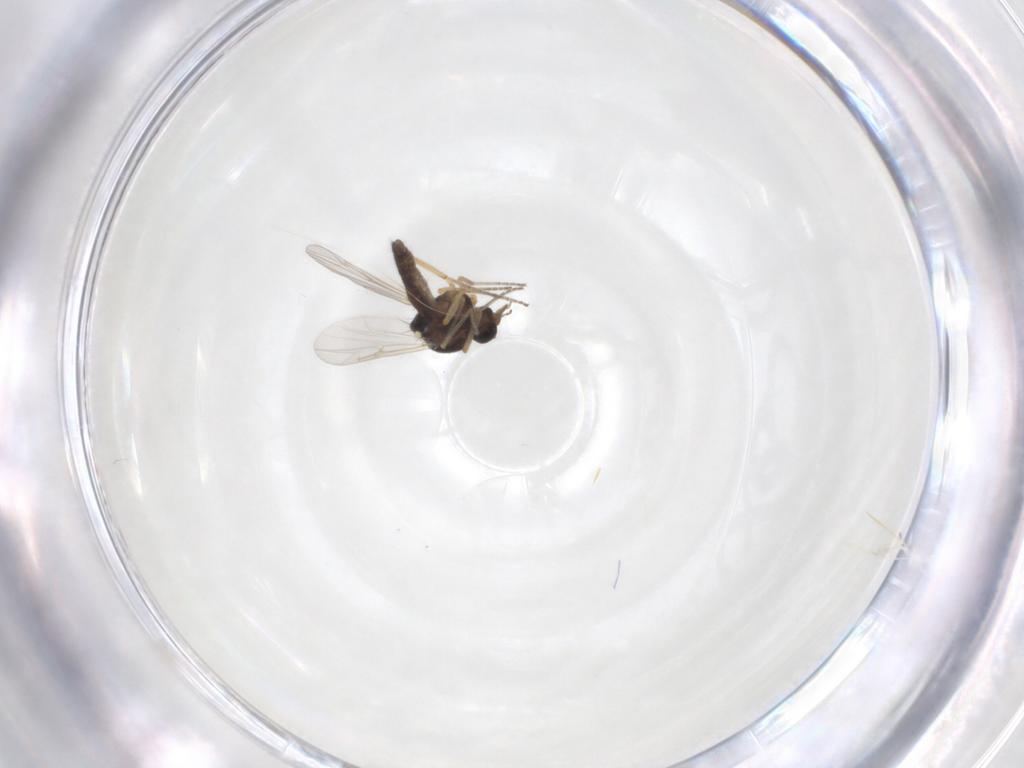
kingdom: Animalia
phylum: Arthropoda
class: Insecta
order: Diptera
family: Ceratopogonidae
